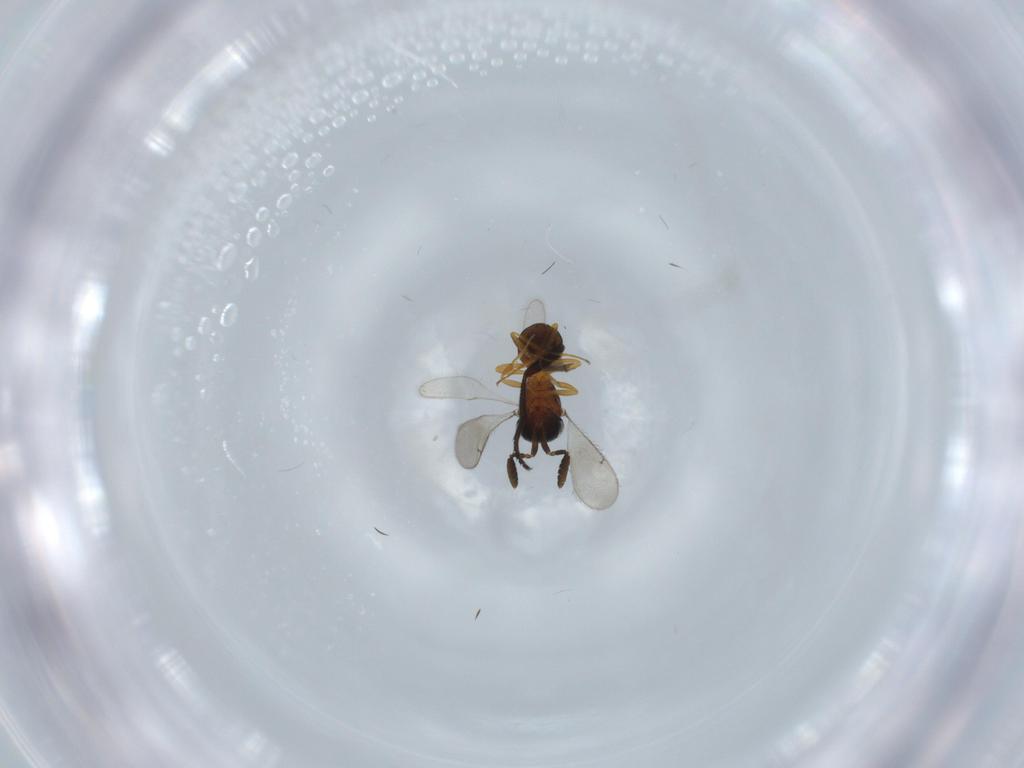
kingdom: Animalia
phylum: Arthropoda
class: Insecta
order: Hymenoptera
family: Scelionidae
